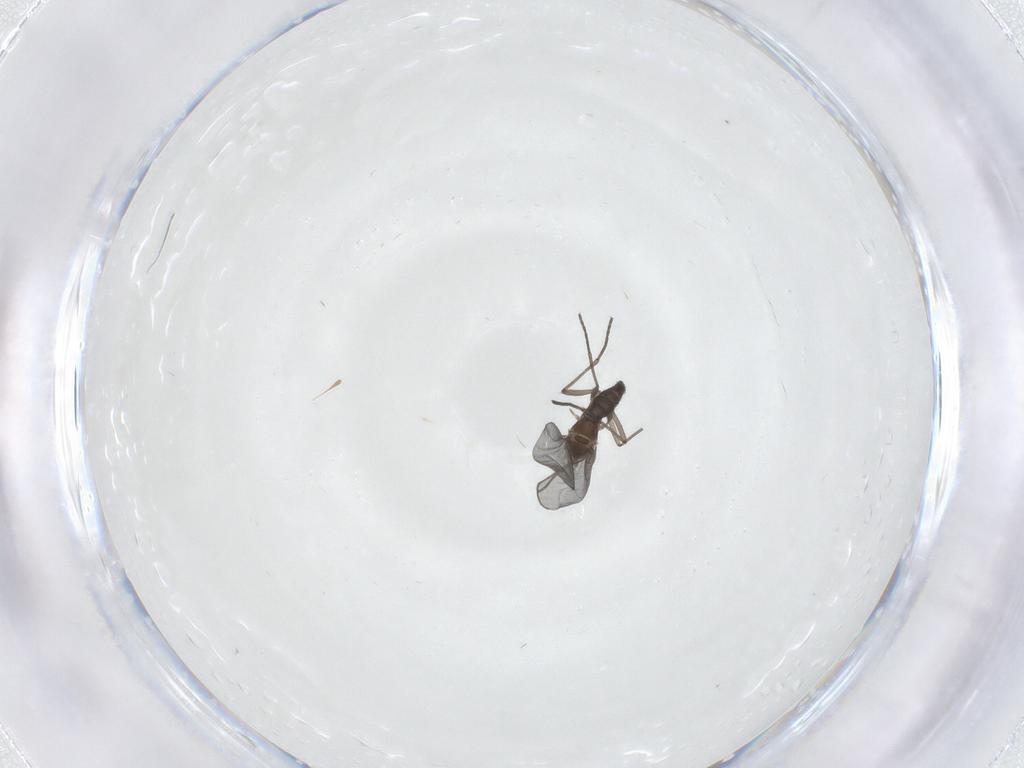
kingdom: Animalia
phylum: Arthropoda
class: Insecta
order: Diptera
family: Sciaridae
